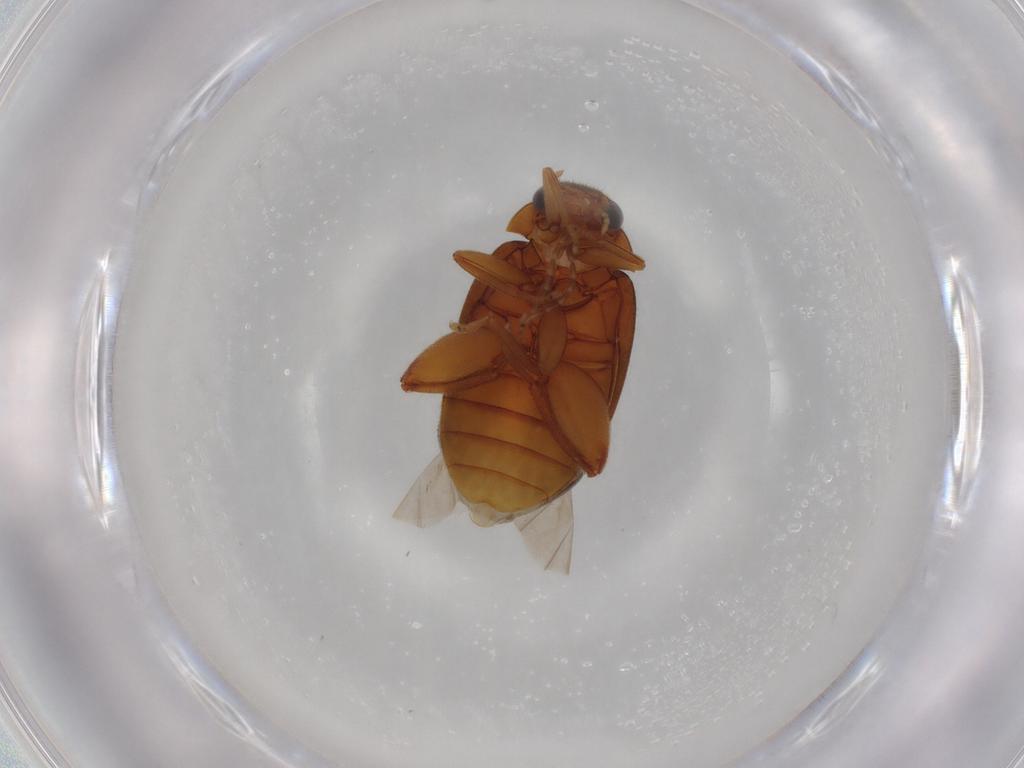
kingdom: Animalia
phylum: Arthropoda
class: Insecta
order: Coleoptera
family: Scirtidae
